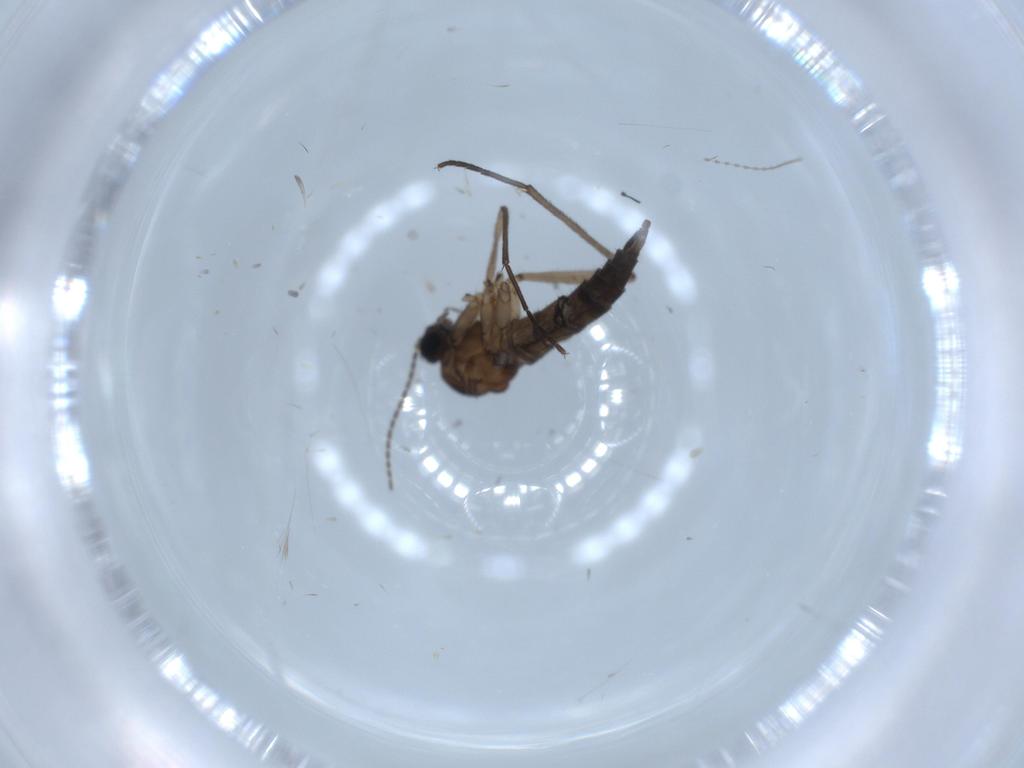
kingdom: Animalia
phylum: Arthropoda
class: Insecta
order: Diptera
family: Sciaridae
